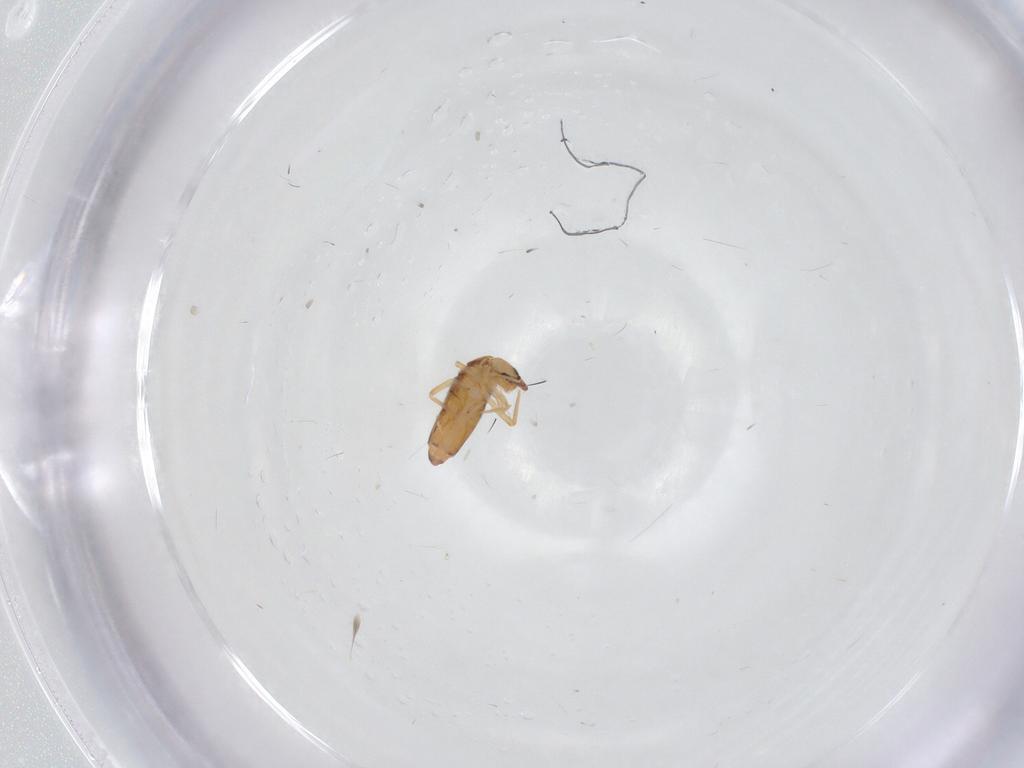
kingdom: Animalia
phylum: Arthropoda
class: Collembola
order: Entomobryomorpha
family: Entomobryidae
